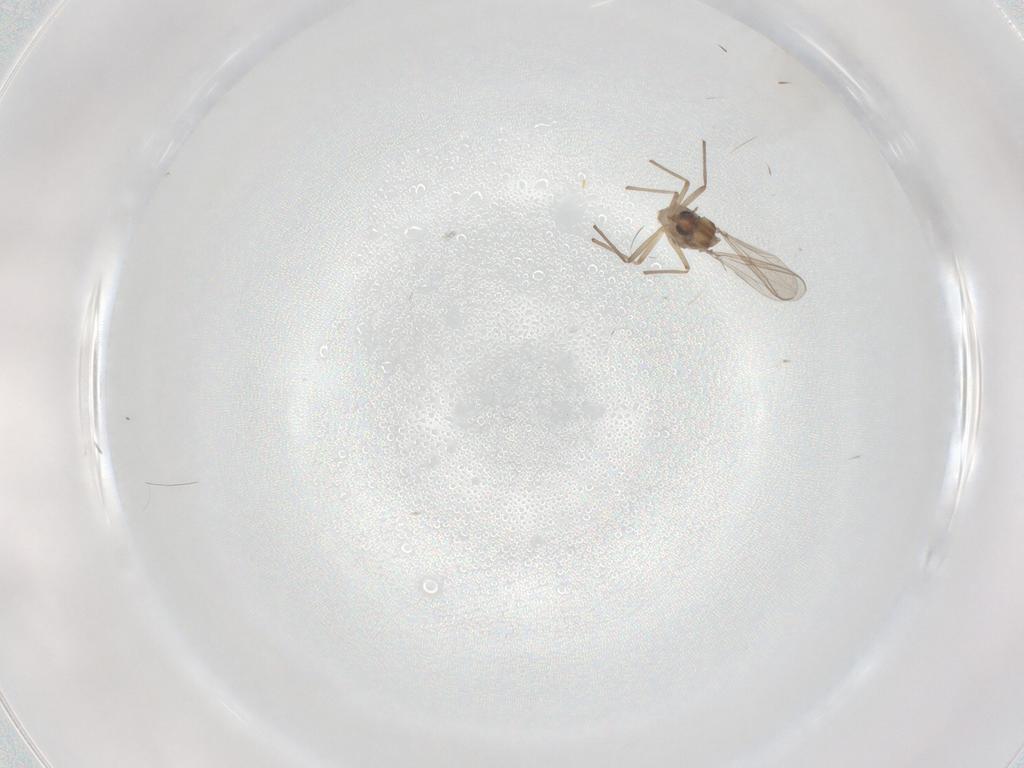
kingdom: Animalia
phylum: Arthropoda
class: Insecta
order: Diptera
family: Chironomidae
